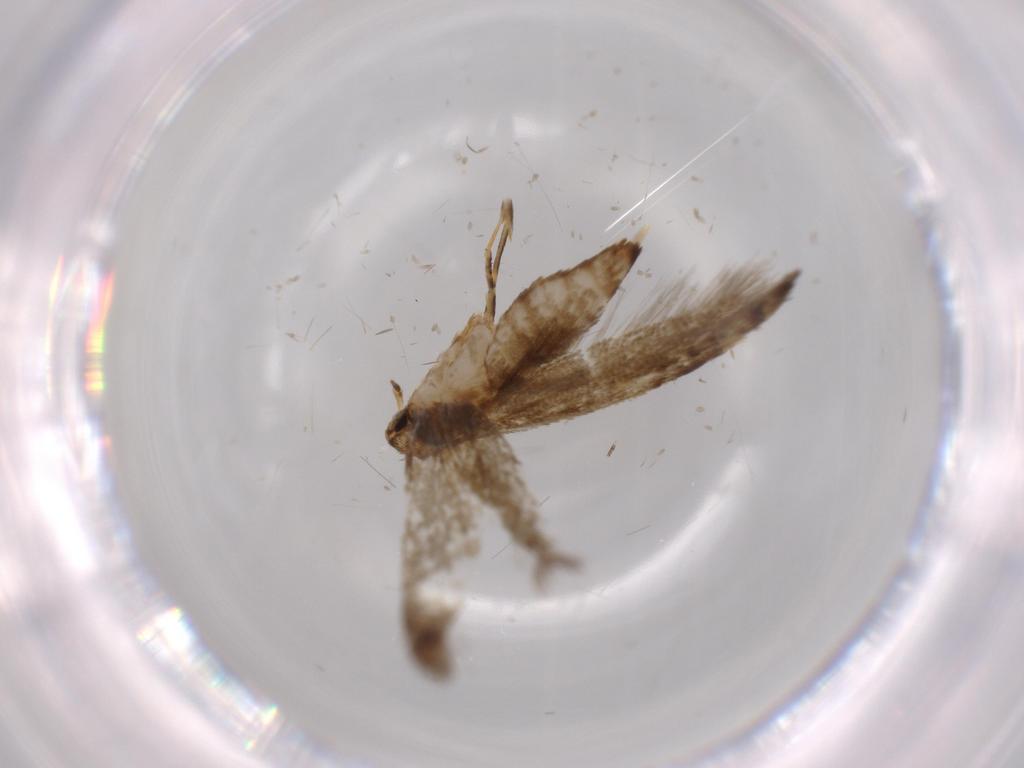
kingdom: Animalia
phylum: Arthropoda
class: Insecta
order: Lepidoptera
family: Tineidae
